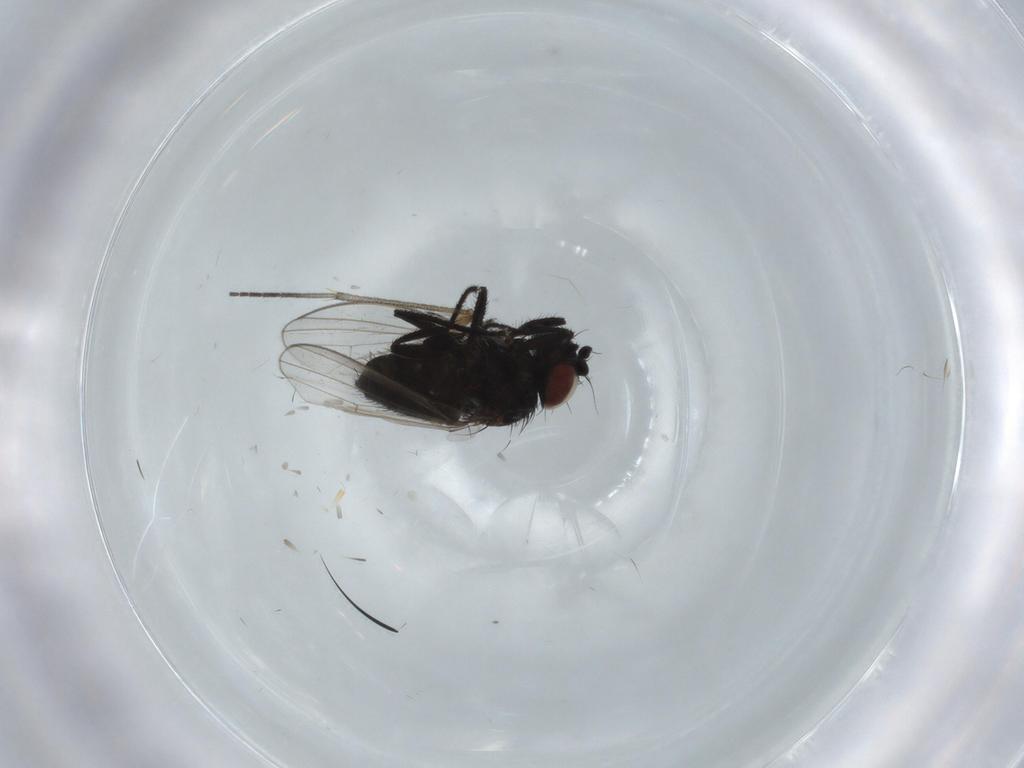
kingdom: Animalia
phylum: Arthropoda
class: Insecta
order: Diptera
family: Milichiidae
